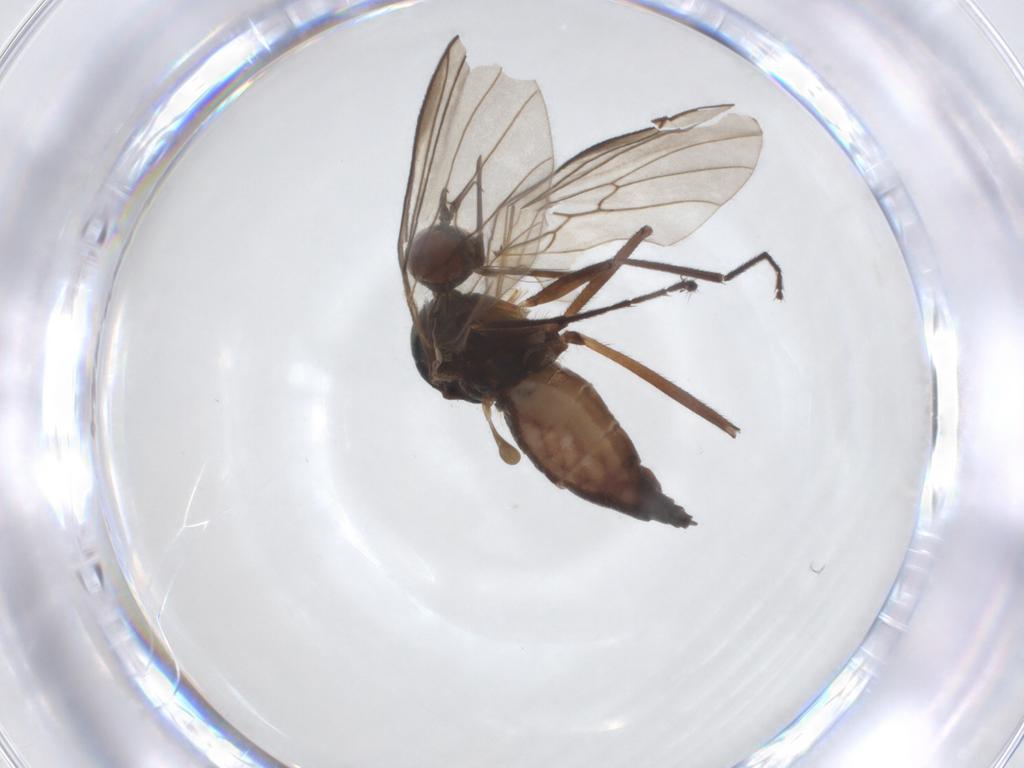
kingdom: Animalia
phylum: Arthropoda
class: Insecta
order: Diptera
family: Empididae
